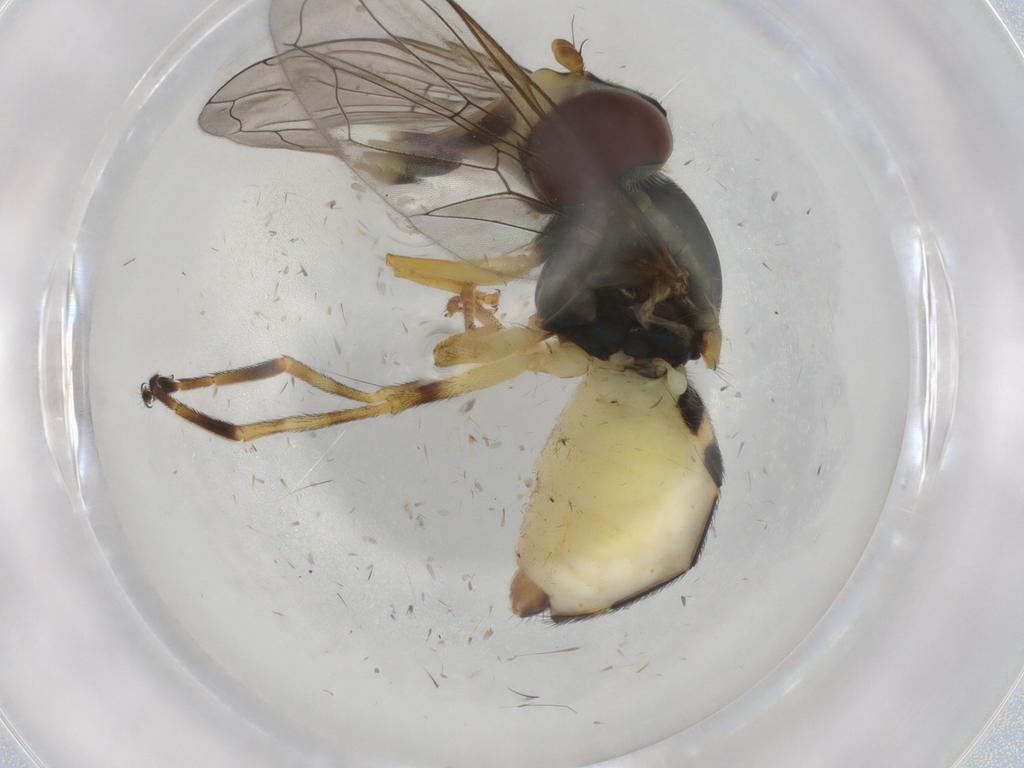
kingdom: Animalia
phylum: Arthropoda
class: Insecta
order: Diptera
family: Syrphidae
